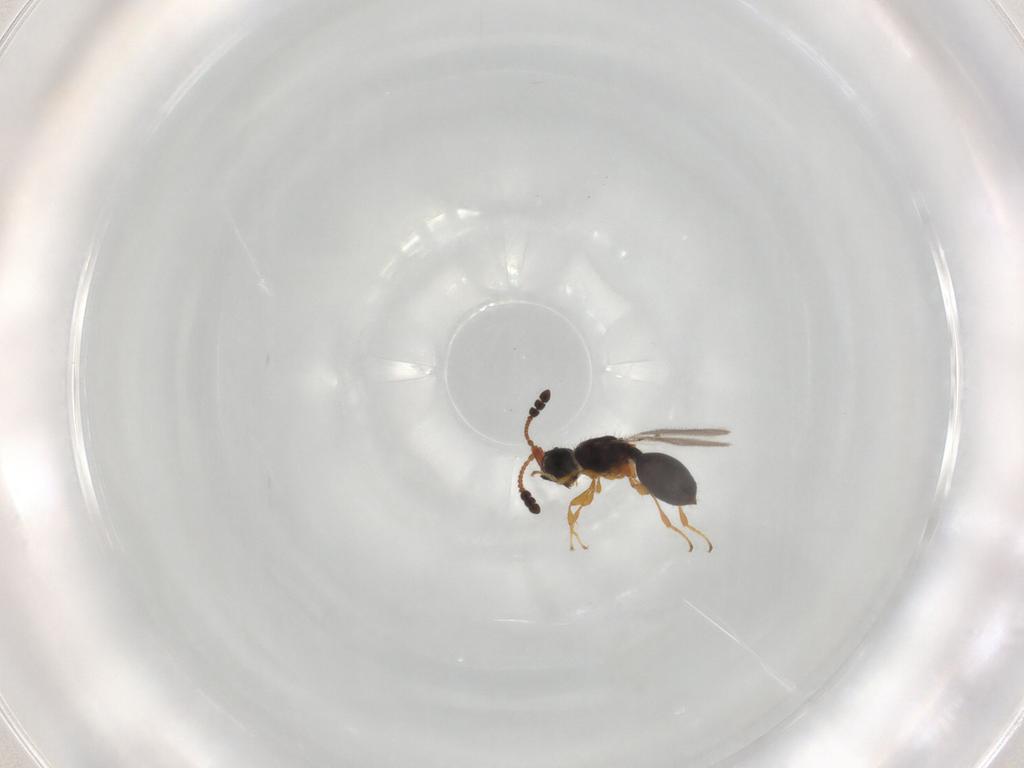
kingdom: Animalia
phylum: Arthropoda
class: Insecta
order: Hymenoptera
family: Diapriidae
